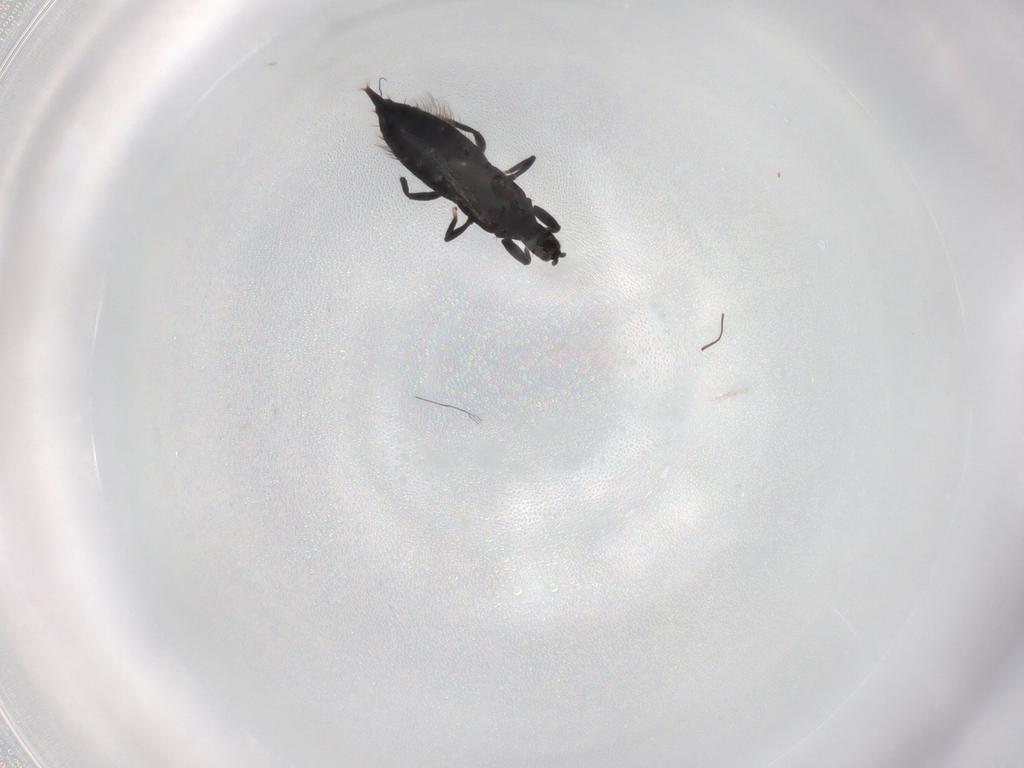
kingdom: Animalia
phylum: Arthropoda
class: Insecta
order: Thysanoptera
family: Phlaeothripidae
